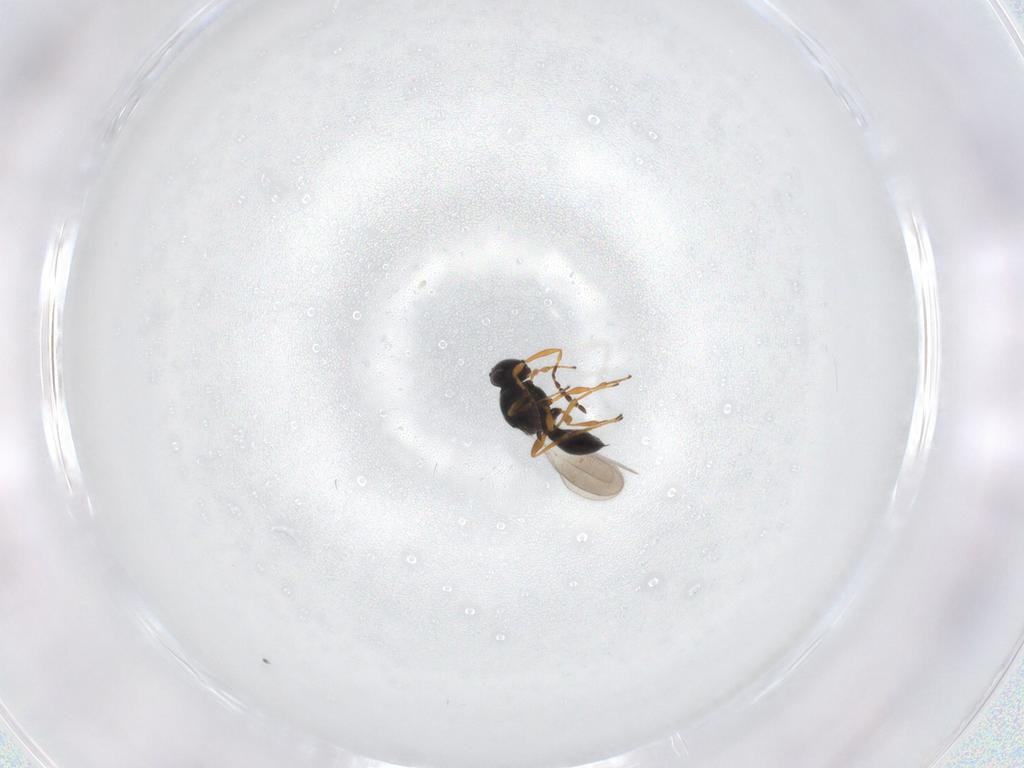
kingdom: Animalia
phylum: Arthropoda
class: Insecta
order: Hymenoptera
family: Platygastridae
